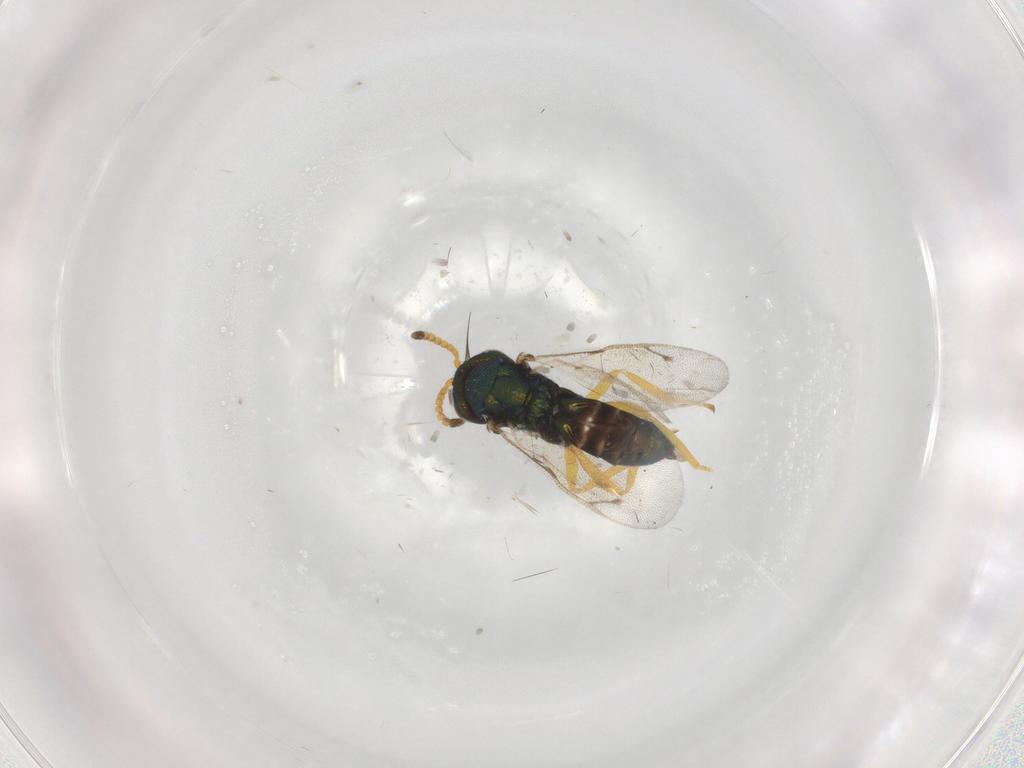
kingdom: Animalia
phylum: Arthropoda
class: Insecta
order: Hymenoptera
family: Pteromalidae
